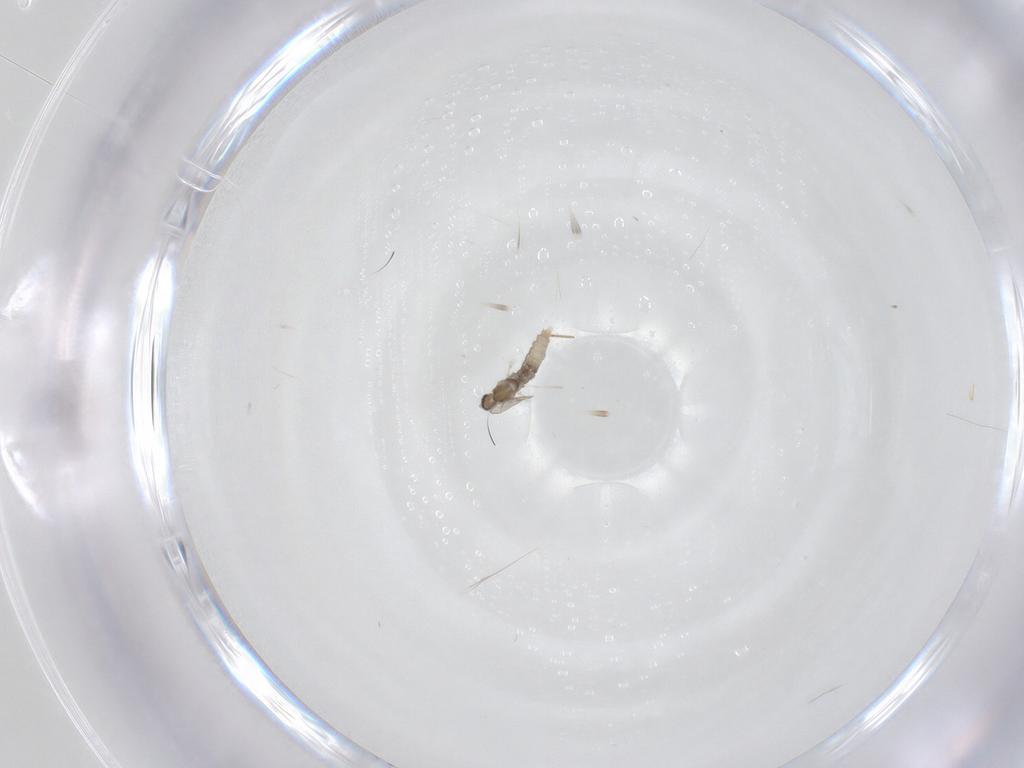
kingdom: Animalia
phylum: Arthropoda
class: Insecta
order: Diptera
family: Chironomidae
